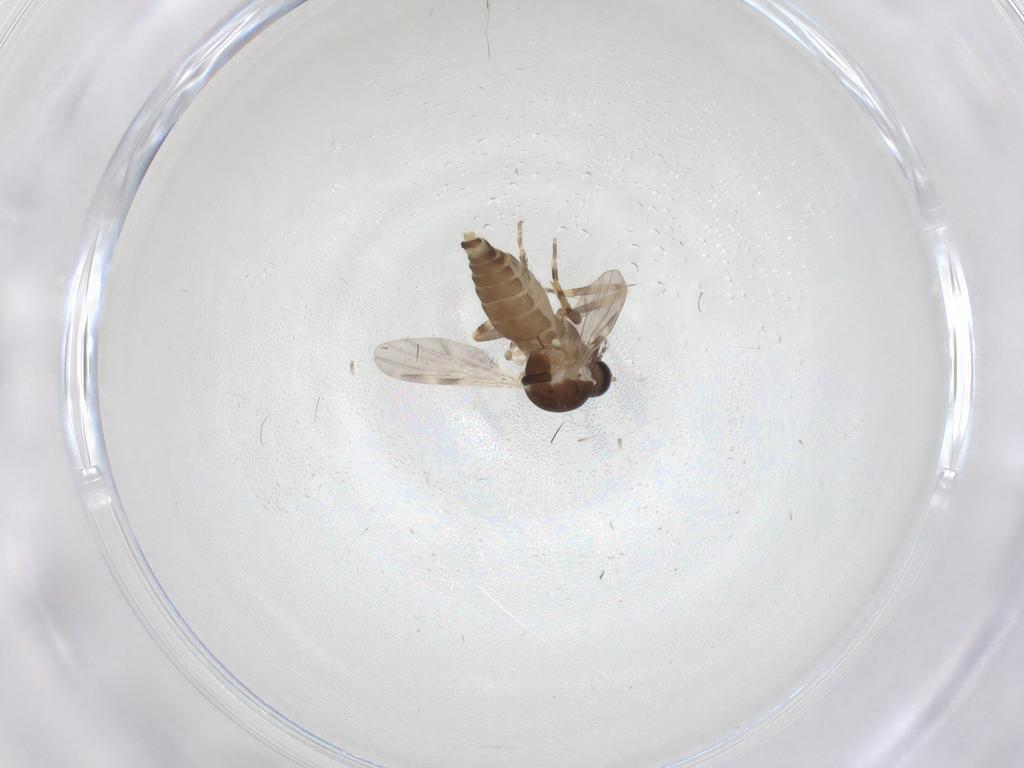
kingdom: Animalia
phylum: Arthropoda
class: Insecta
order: Diptera
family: Ceratopogonidae
